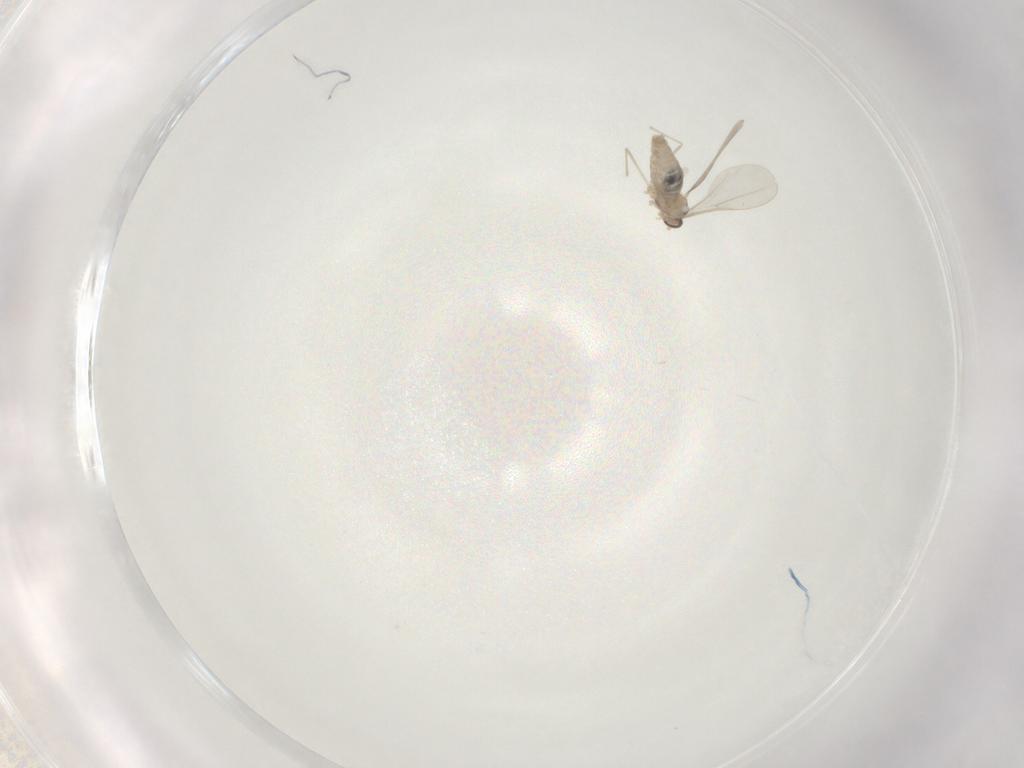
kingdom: Animalia
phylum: Arthropoda
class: Insecta
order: Diptera
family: Cecidomyiidae
